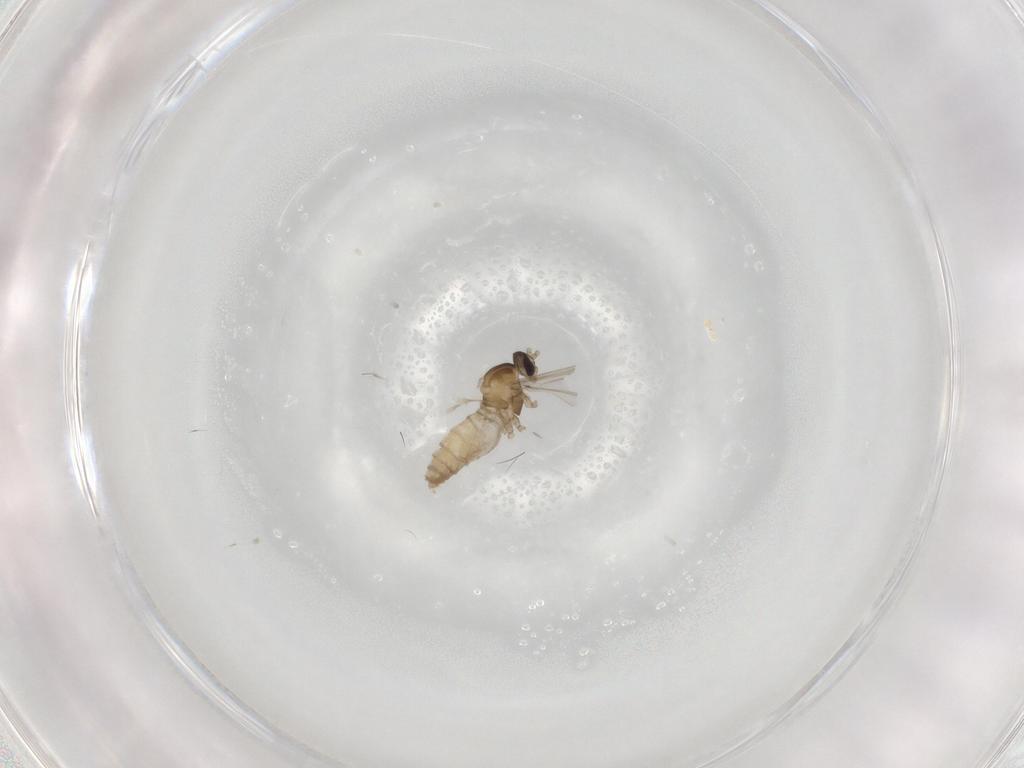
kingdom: Animalia
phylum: Arthropoda
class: Insecta
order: Diptera
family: Cecidomyiidae
